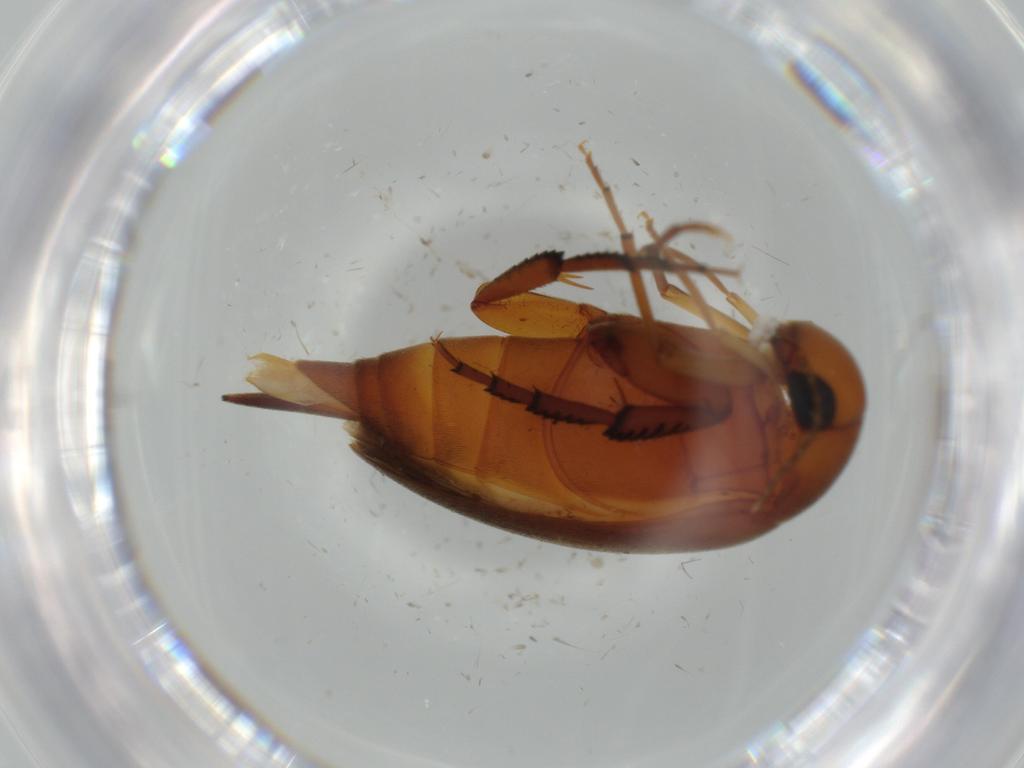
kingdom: Animalia
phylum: Arthropoda
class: Insecta
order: Coleoptera
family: Mordellidae
